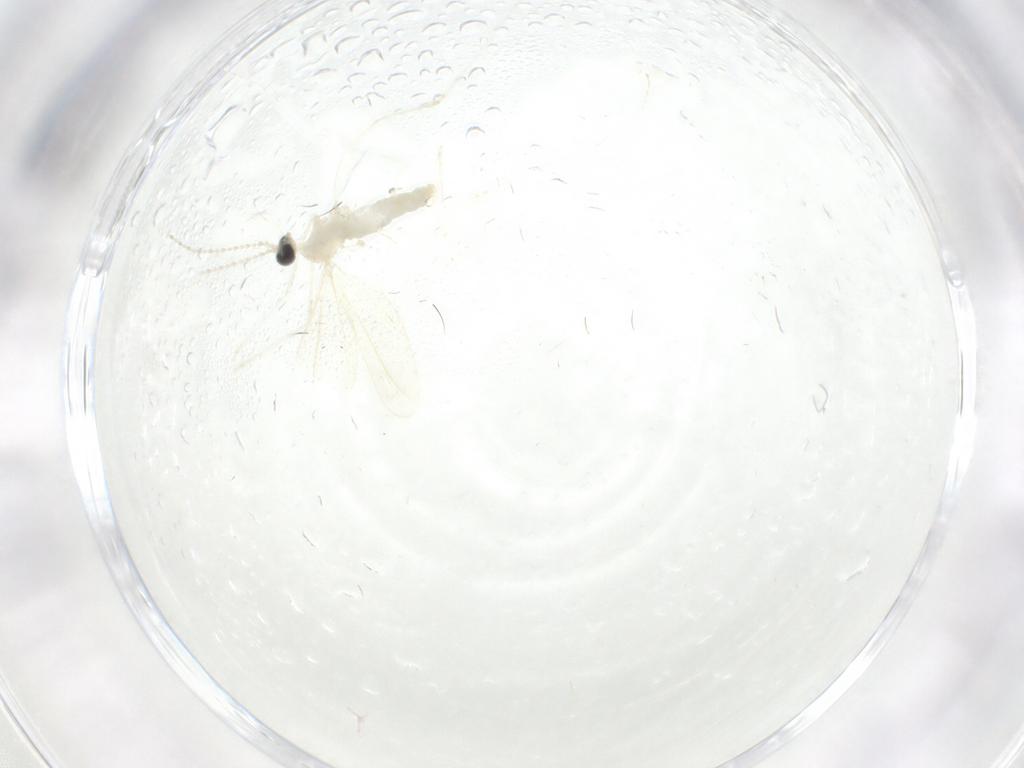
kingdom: Animalia
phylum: Arthropoda
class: Insecta
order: Diptera
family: Cecidomyiidae
